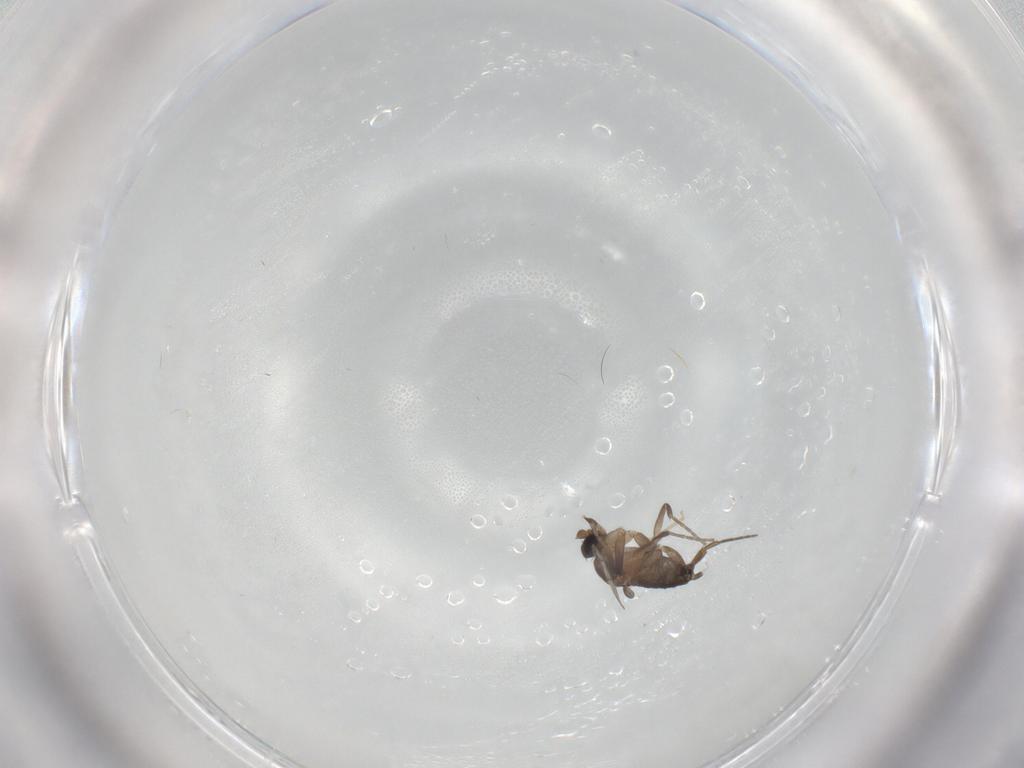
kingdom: Animalia
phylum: Arthropoda
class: Insecta
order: Diptera
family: Phoridae
